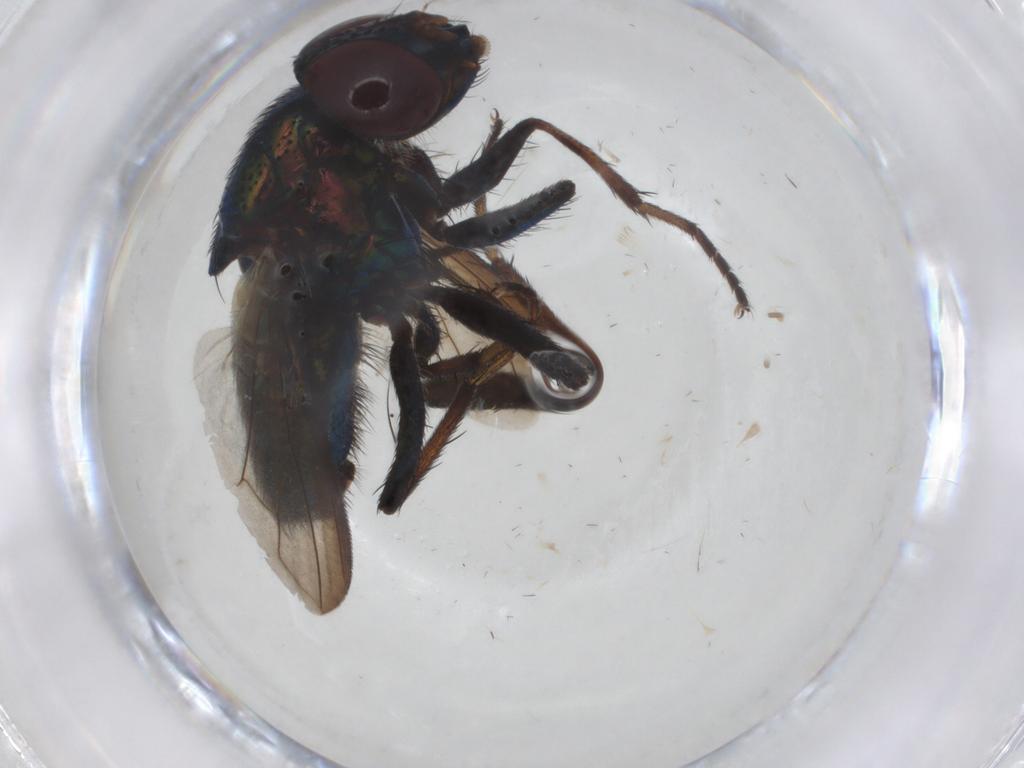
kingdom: Animalia
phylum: Arthropoda
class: Insecta
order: Diptera
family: Calliphoridae
